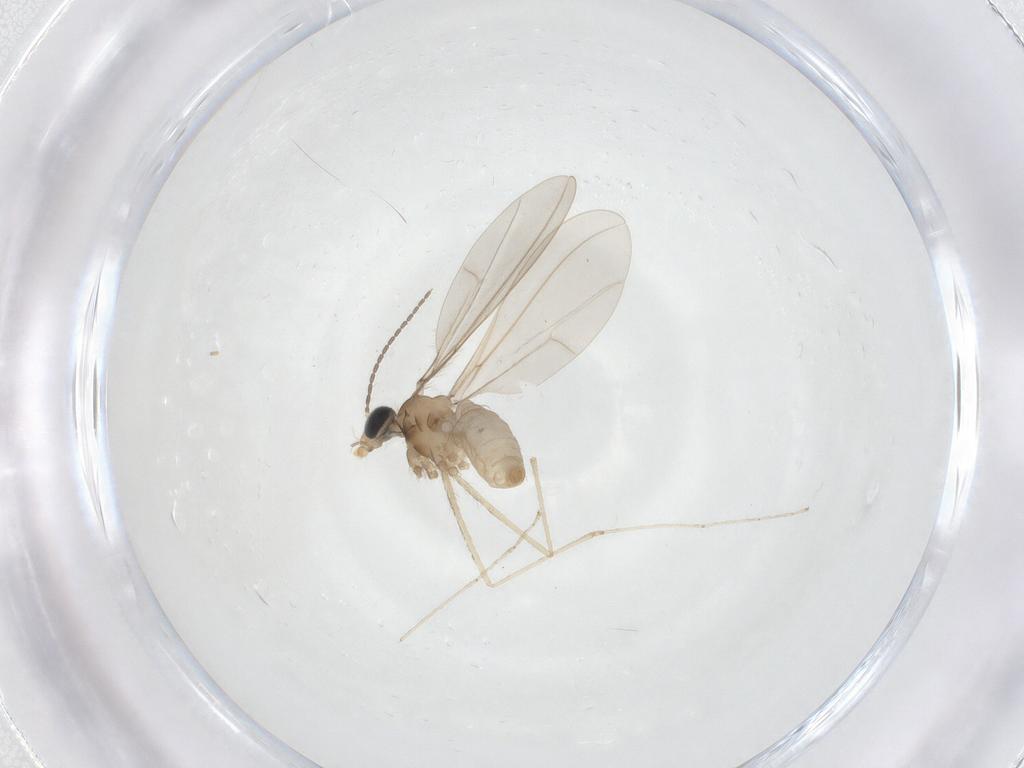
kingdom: Animalia
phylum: Arthropoda
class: Insecta
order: Diptera
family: Cecidomyiidae
